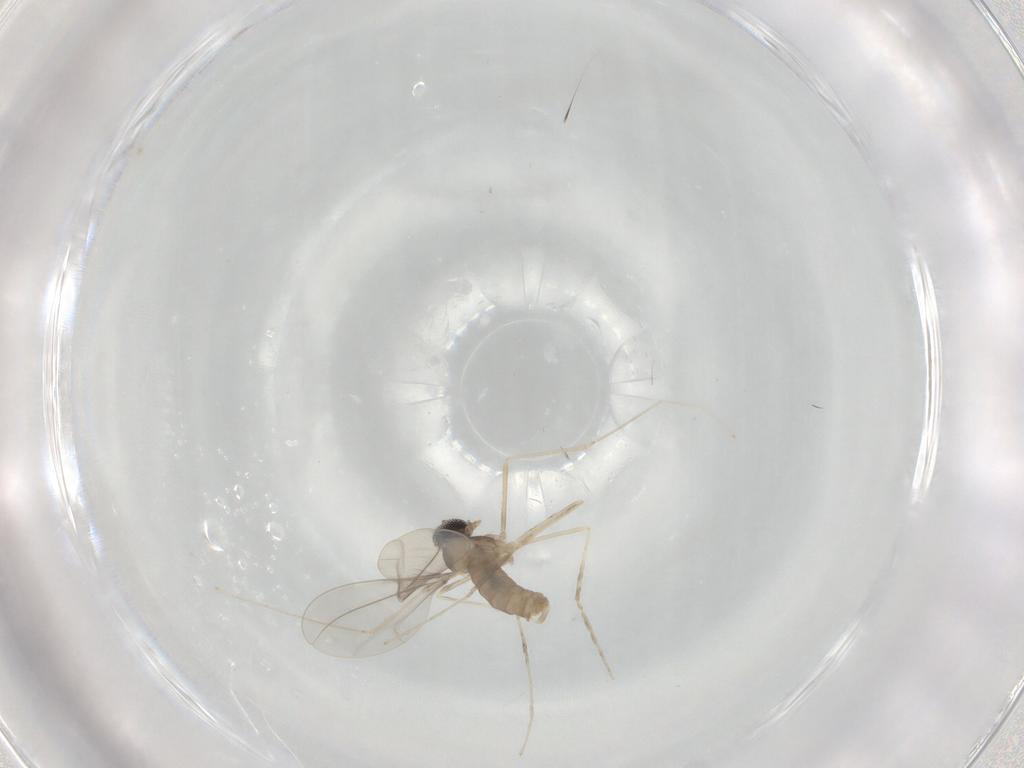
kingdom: Animalia
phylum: Arthropoda
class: Insecta
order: Diptera
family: Cecidomyiidae
